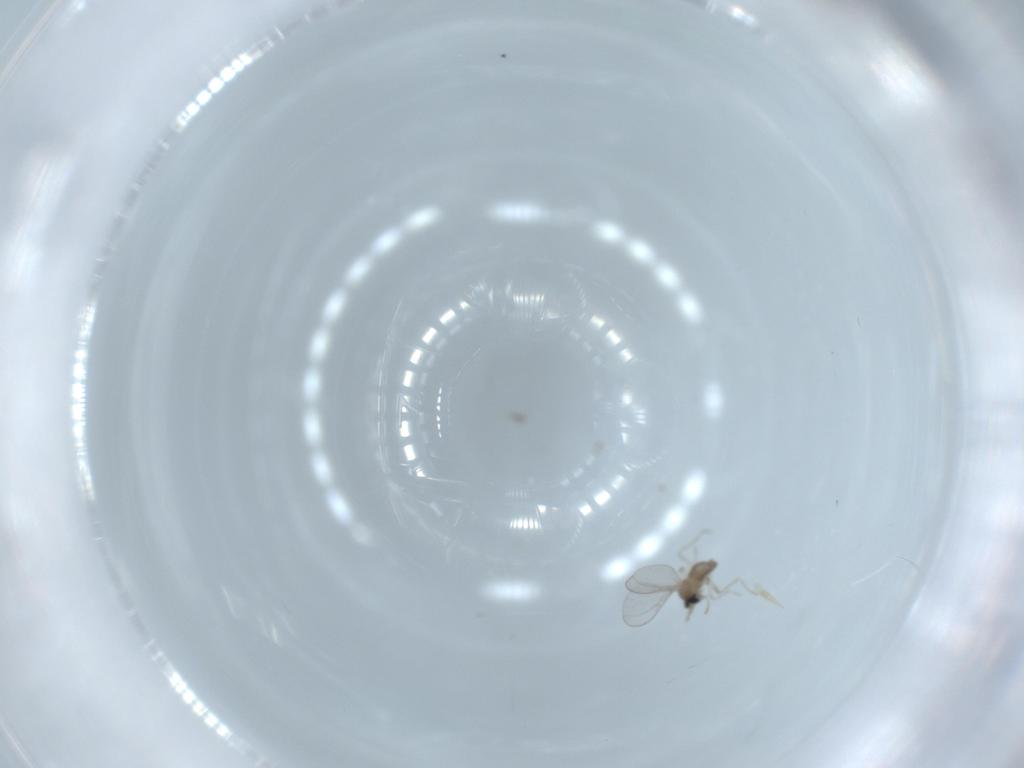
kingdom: Animalia
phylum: Arthropoda
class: Insecta
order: Diptera
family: Cecidomyiidae
